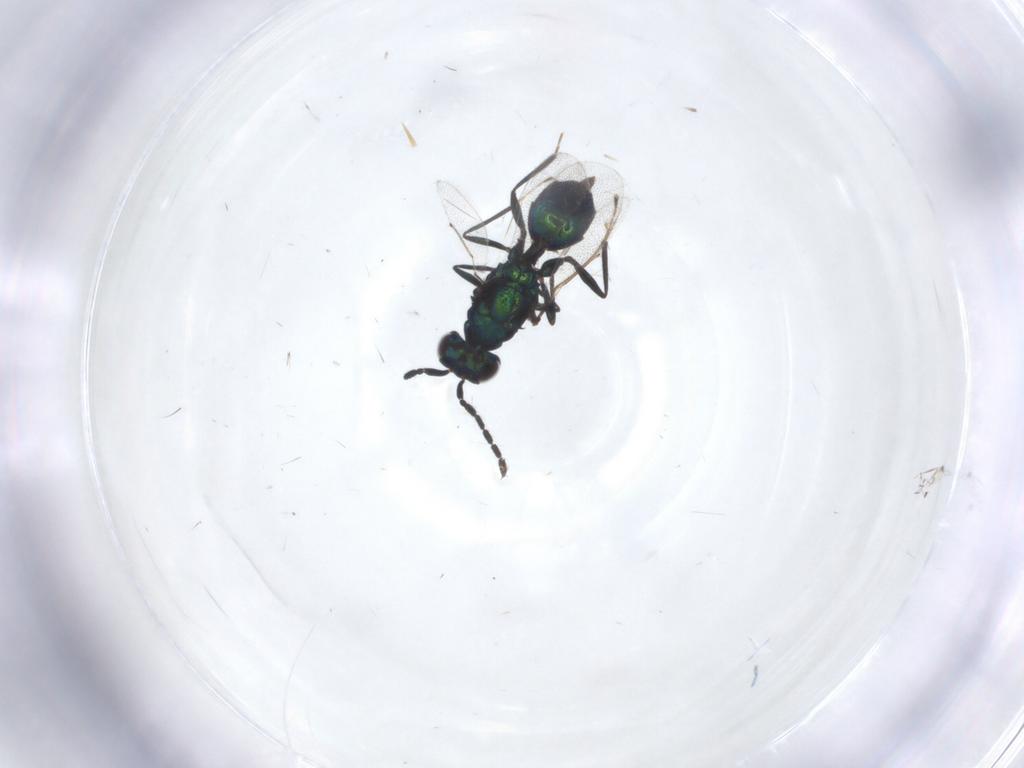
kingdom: Animalia
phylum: Arthropoda
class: Insecta
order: Hymenoptera
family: Eulophidae
